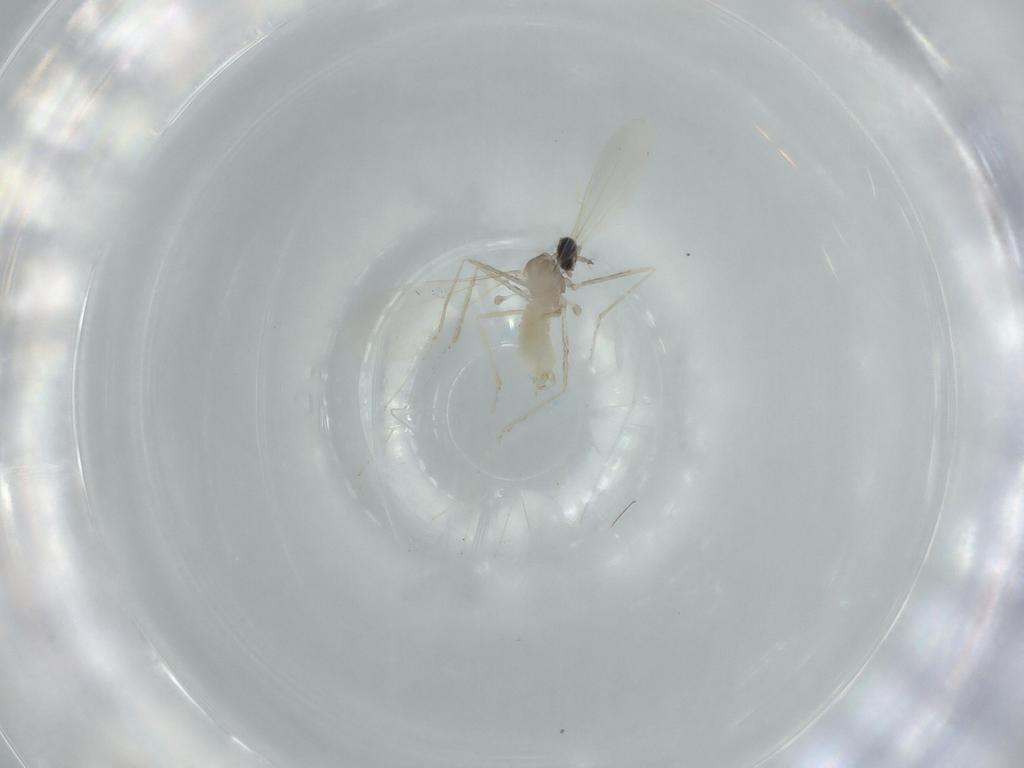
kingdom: Animalia
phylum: Arthropoda
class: Insecta
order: Diptera
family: Cecidomyiidae
